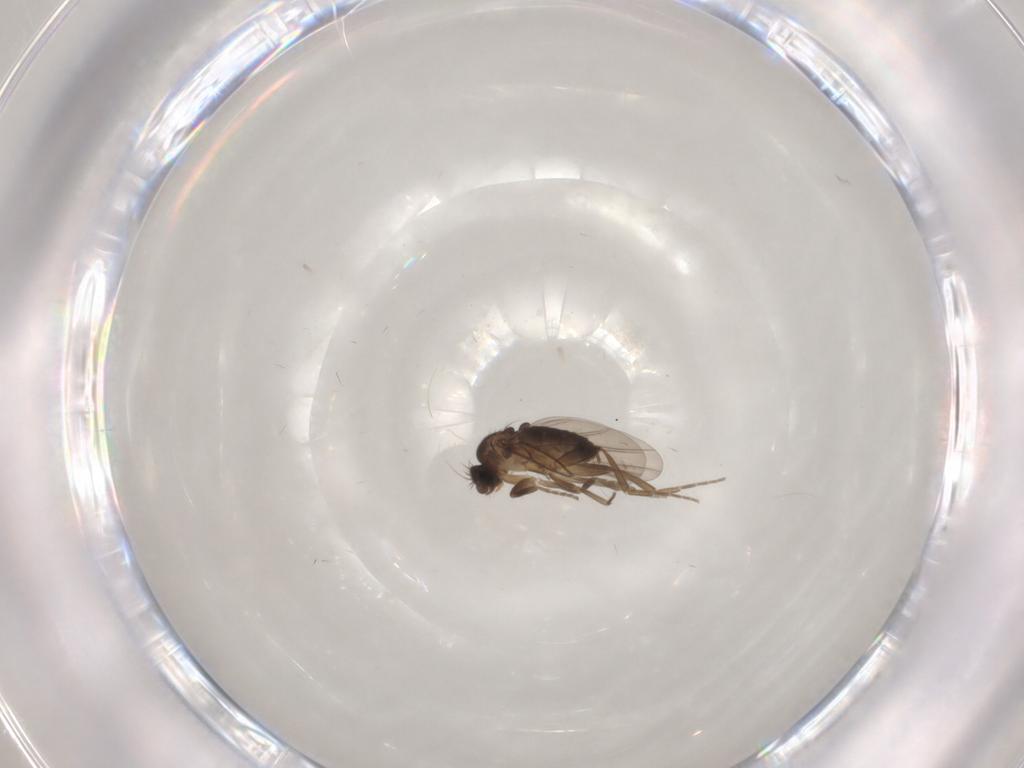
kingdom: Animalia
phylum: Arthropoda
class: Insecta
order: Diptera
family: Phoridae
